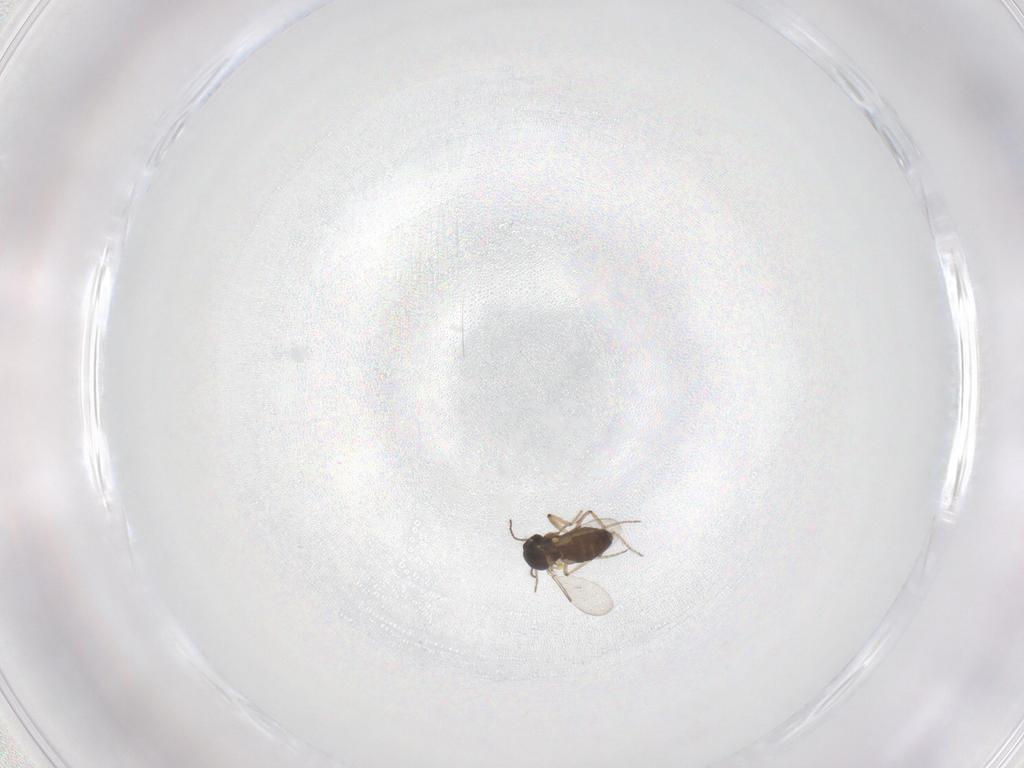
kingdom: Animalia
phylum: Arthropoda
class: Insecta
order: Diptera
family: Ceratopogonidae
